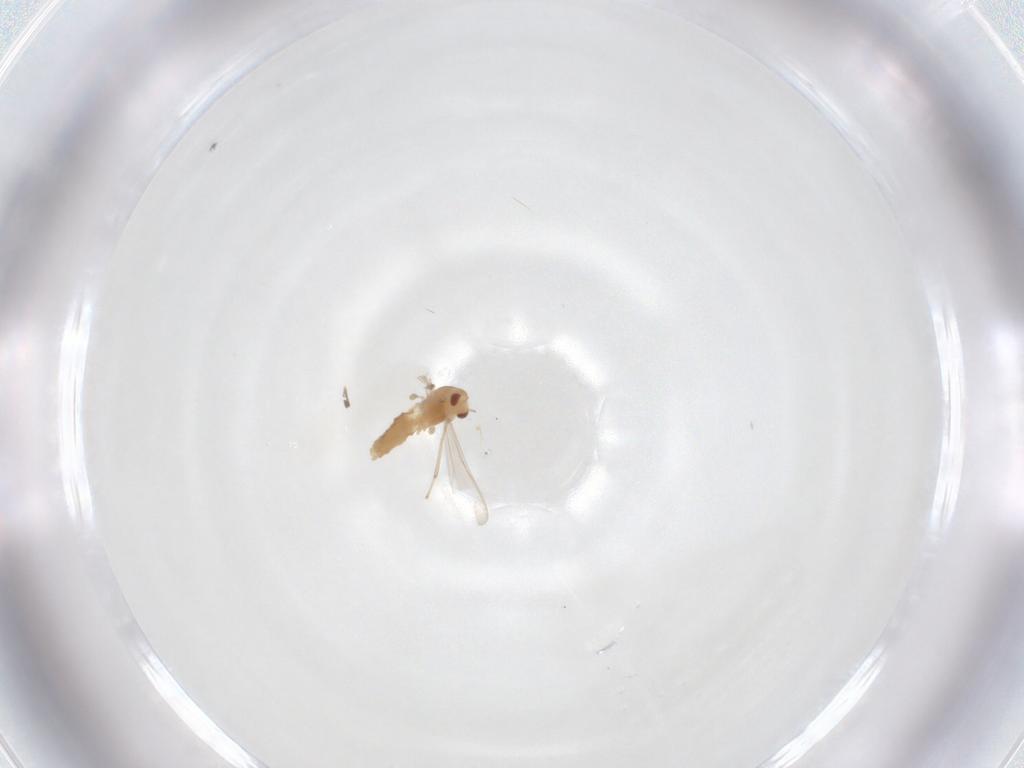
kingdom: Animalia
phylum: Arthropoda
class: Insecta
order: Diptera
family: Chironomidae
